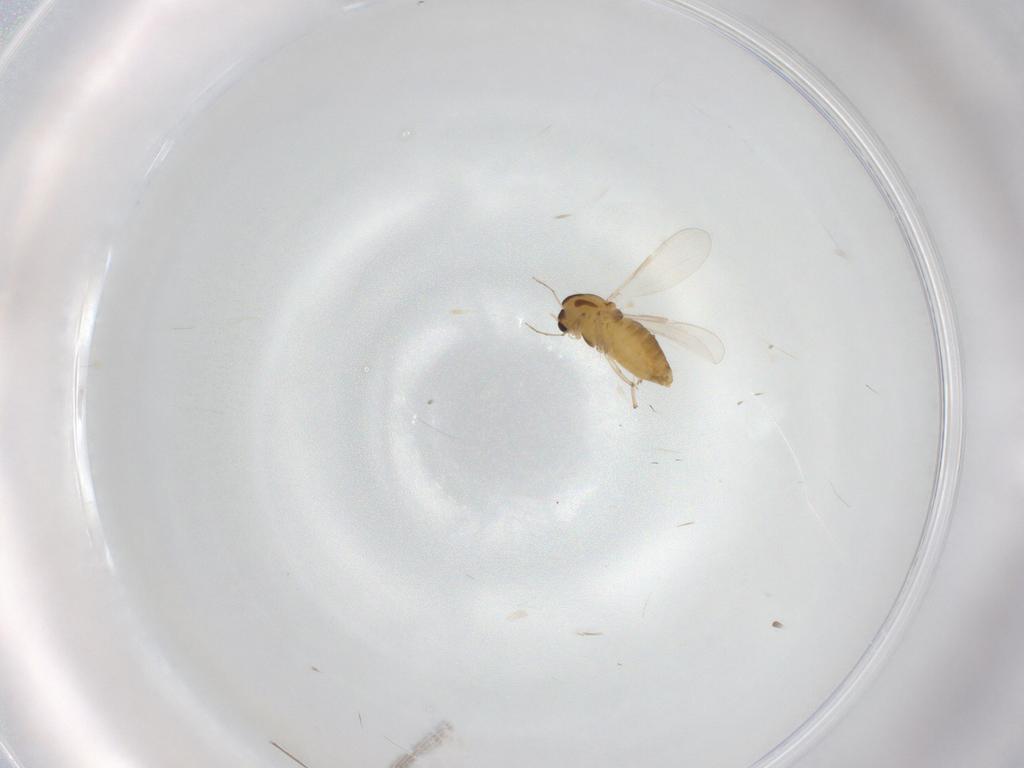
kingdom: Animalia
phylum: Arthropoda
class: Insecta
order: Diptera
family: Chironomidae
